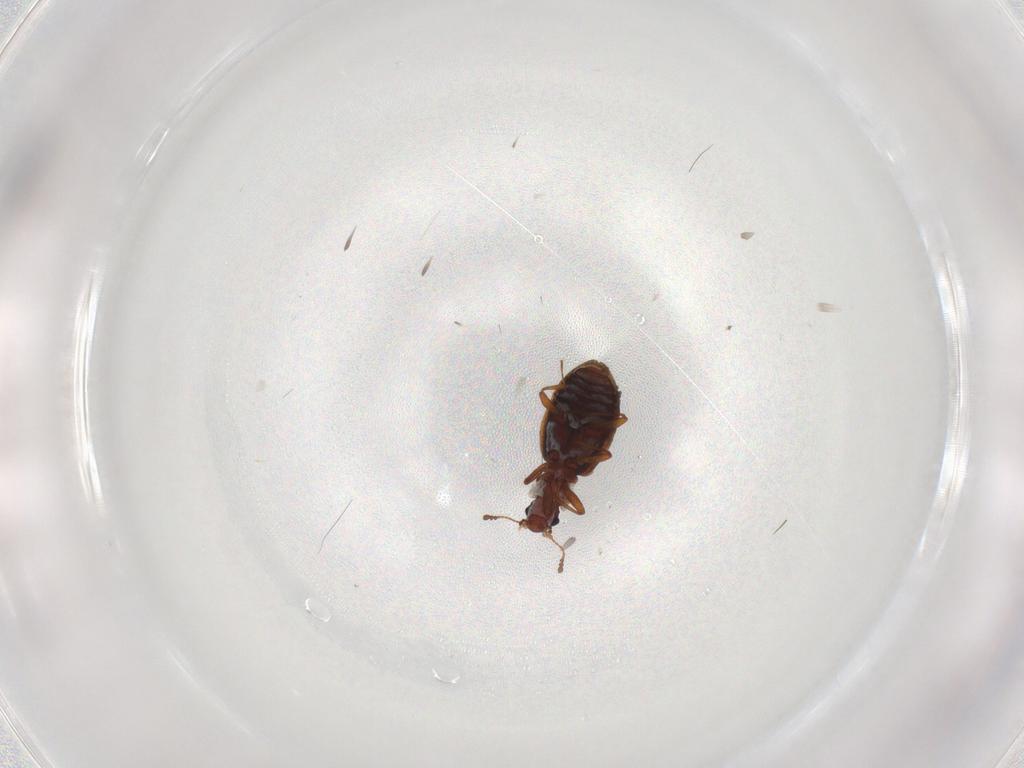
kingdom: Animalia
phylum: Arthropoda
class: Insecta
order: Coleoptera
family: Latridiidae
